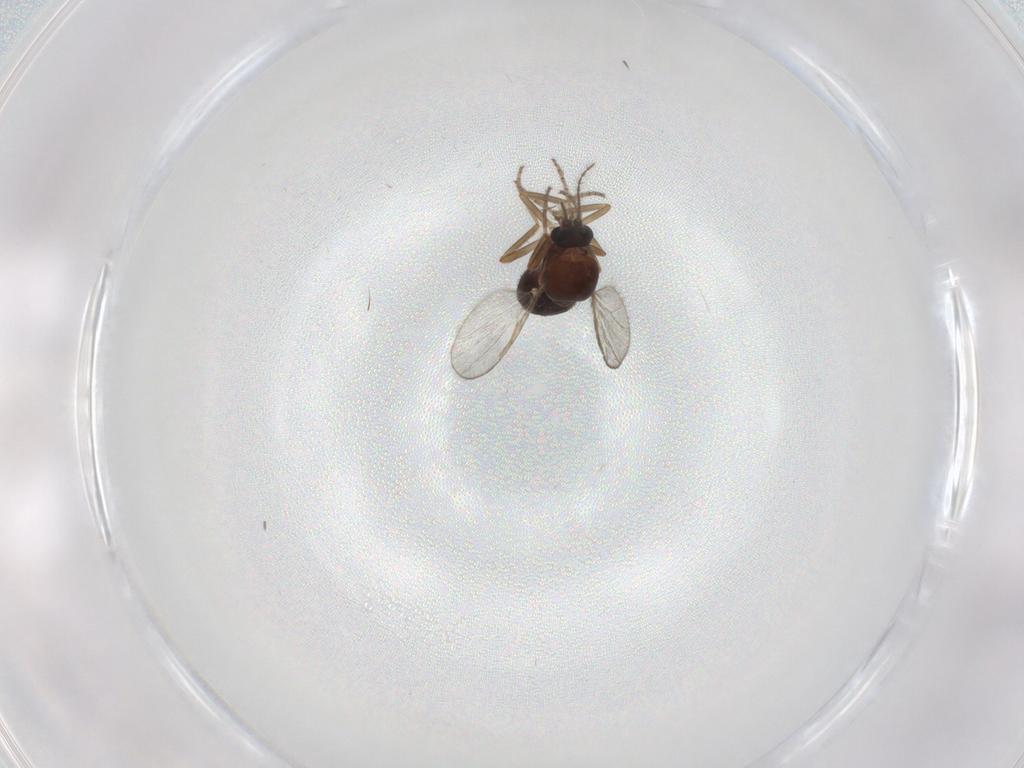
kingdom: Animalia
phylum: Arthropoda
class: Insecta
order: Diptera
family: Ceratopogonidae
